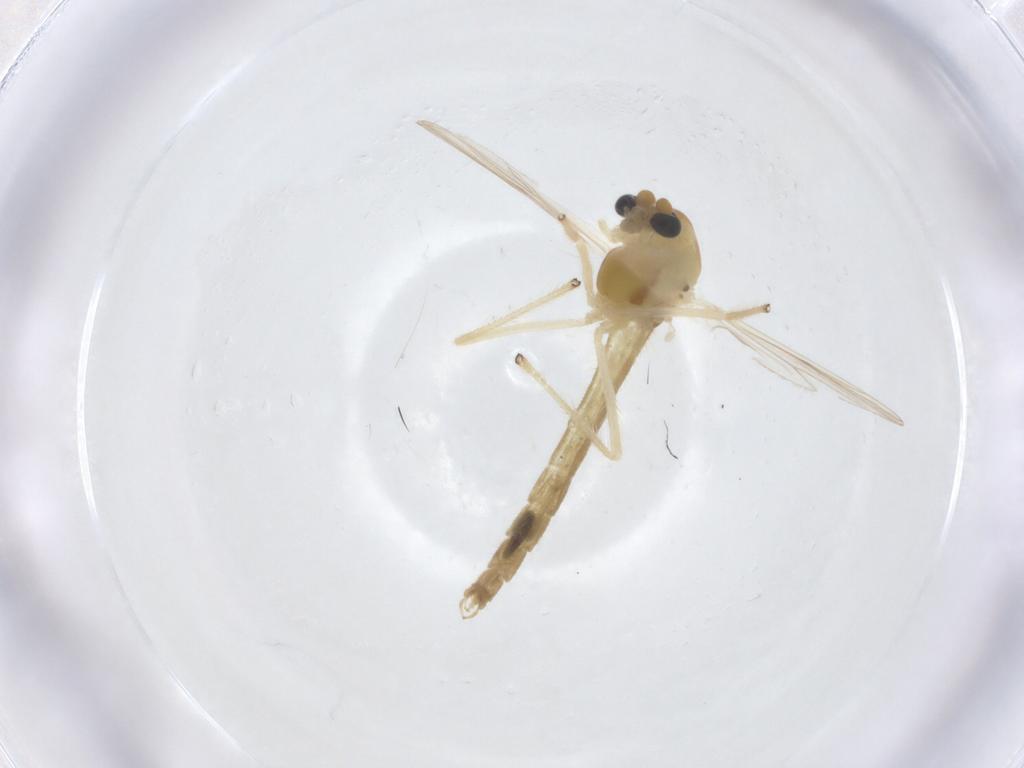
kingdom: Animalia
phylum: Arthropoda
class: Insecta
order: Diptera
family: Chironomidae
